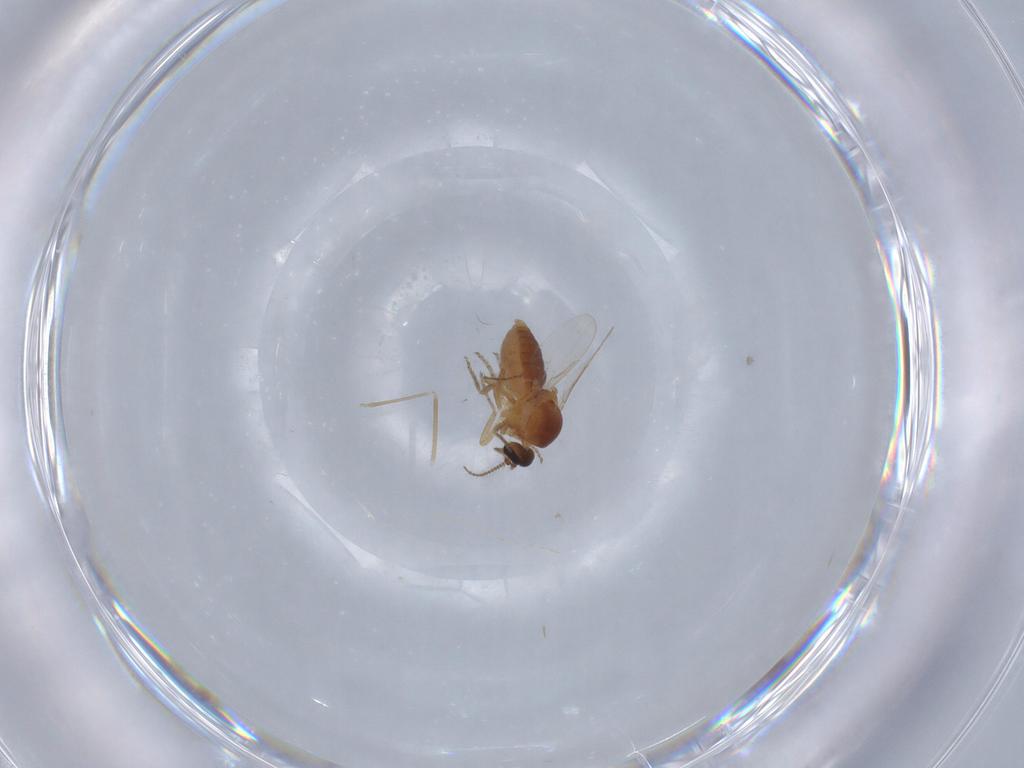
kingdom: Animalia
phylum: Arthropoda
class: Insecta
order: Diptera
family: Ceratopogonidae
